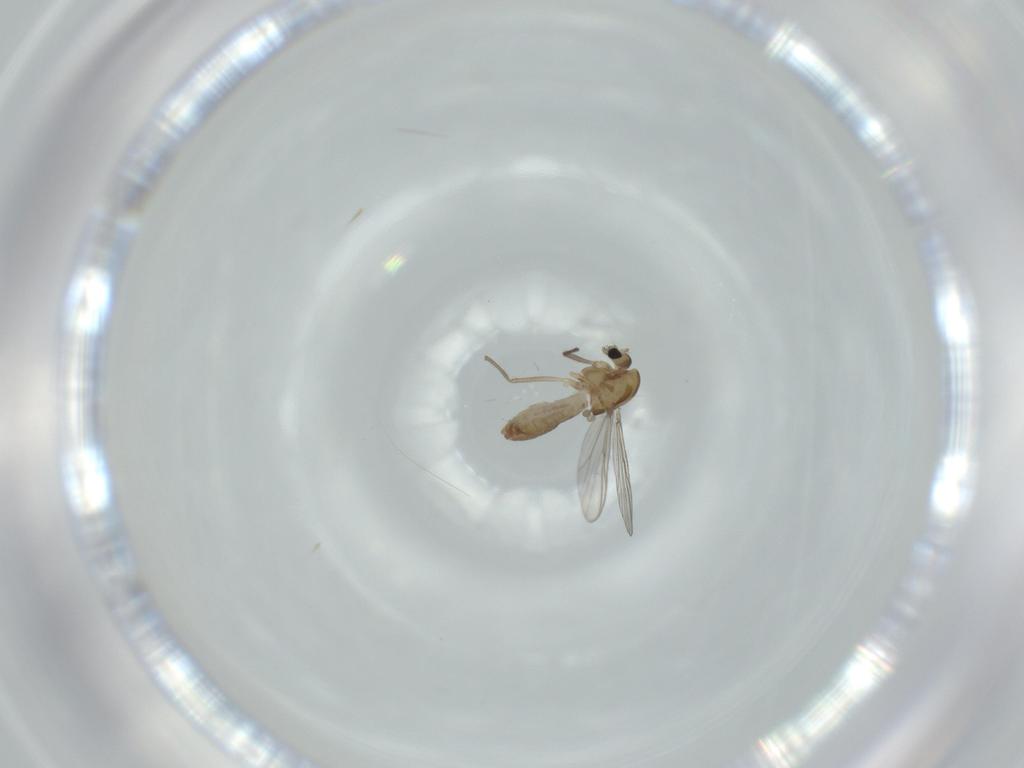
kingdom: Animalia
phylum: Arthropoda
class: Insecta
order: Diptera
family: Chironomidae
